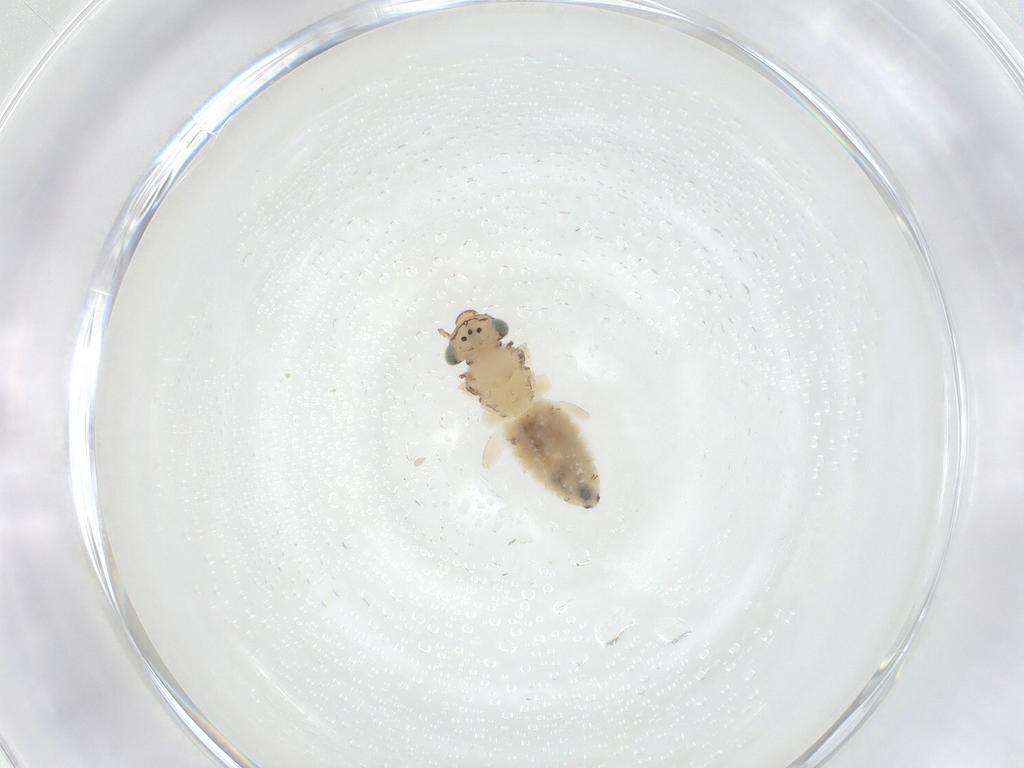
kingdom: Animalia
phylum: Arthropoda
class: Insecta
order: Psocodea
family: Lepidopsocidae
